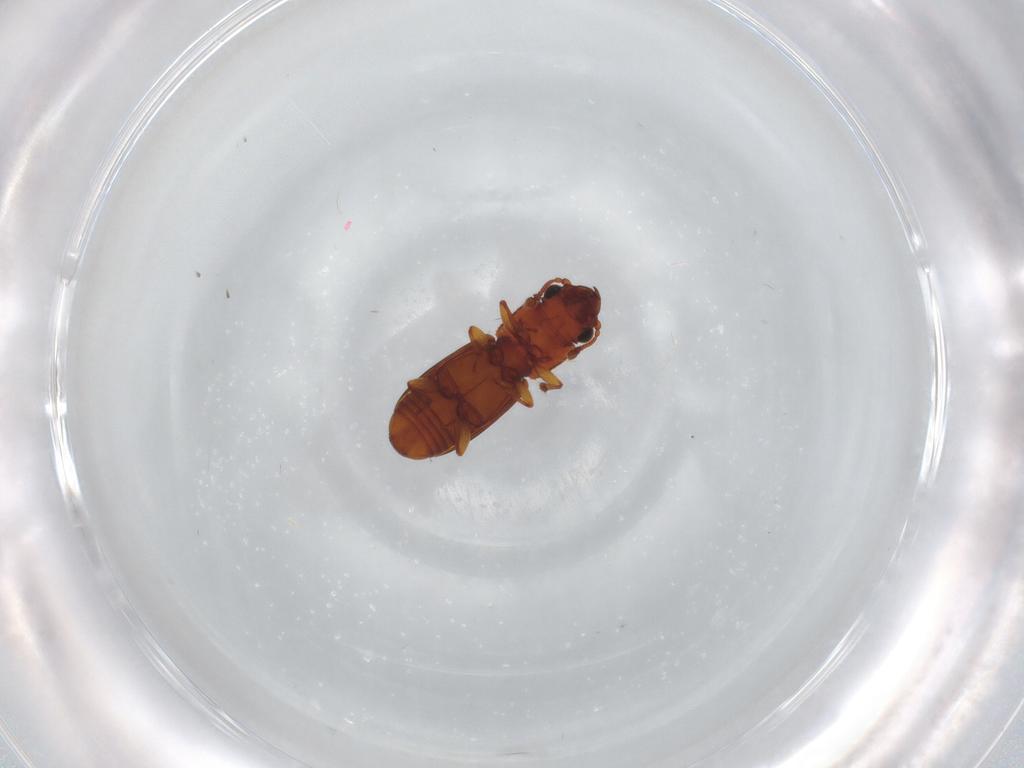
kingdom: Animalia
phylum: Arthropoda
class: Insecta
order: Coleoptera
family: Monotomidae
